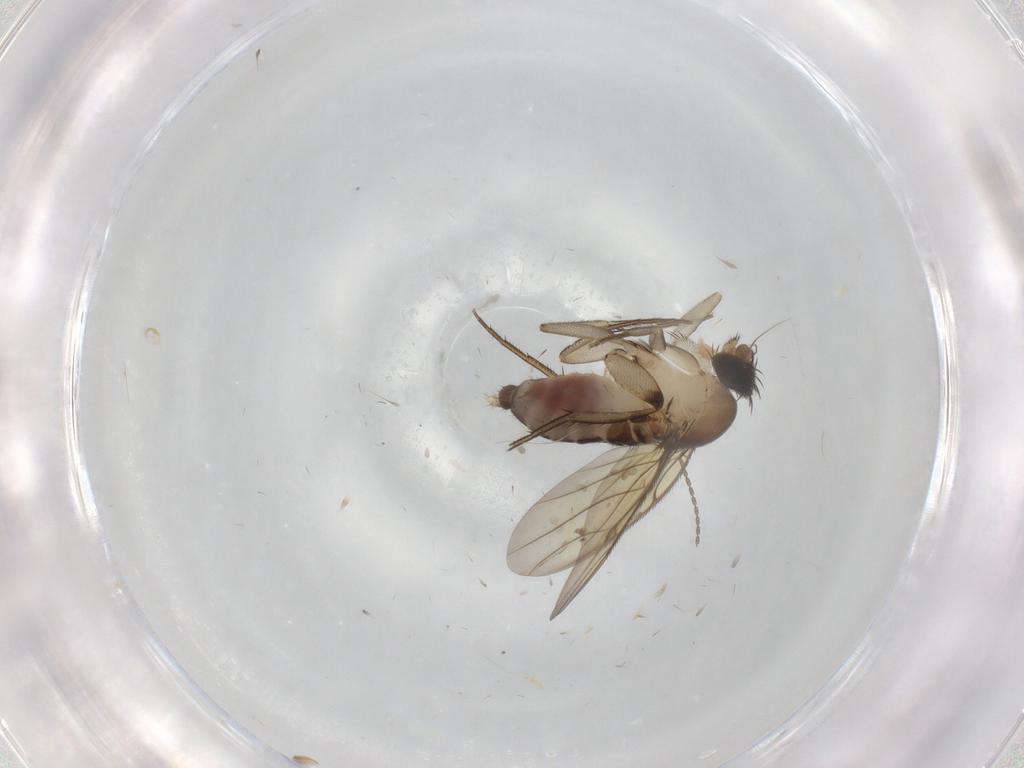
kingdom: Animalia
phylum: Arthropoda
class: Insecta
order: Diptera
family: Phoridae
